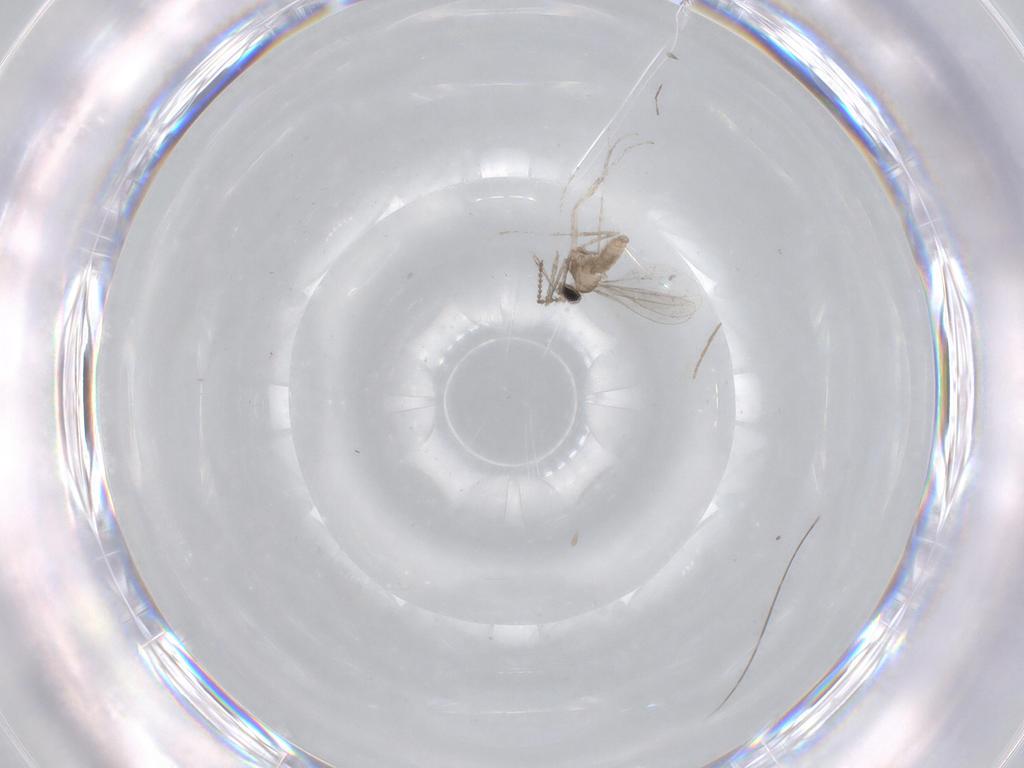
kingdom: Animalia
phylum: Arthropoda
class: Insecta
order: Diptera
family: Chironomidae
